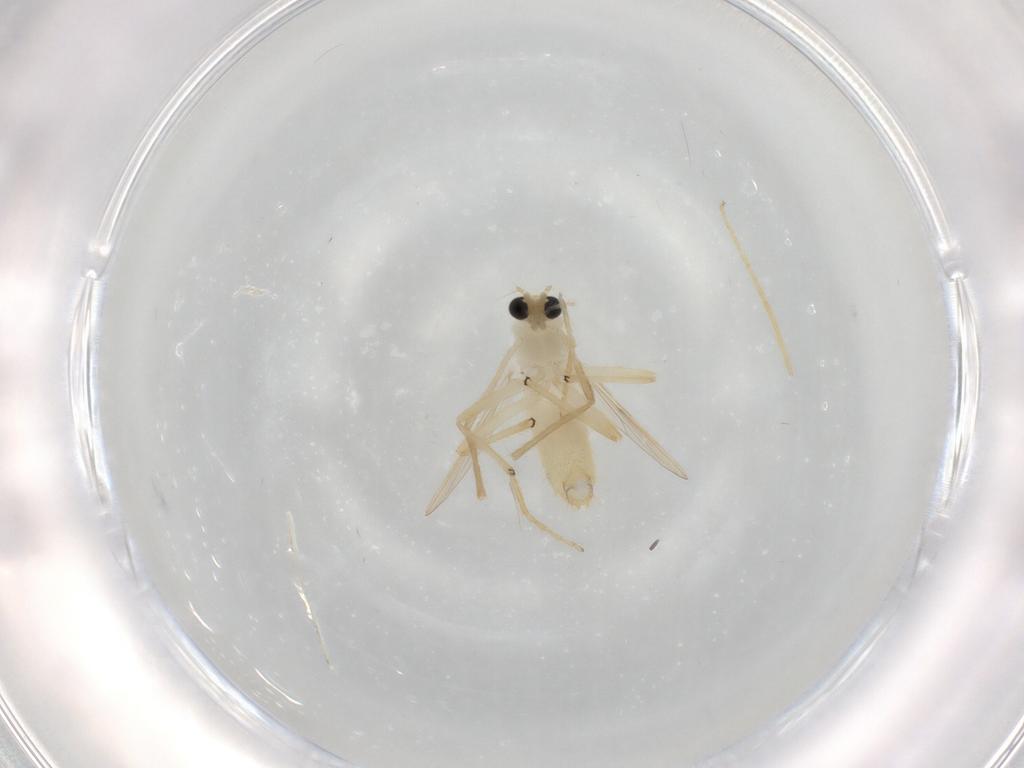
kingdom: Animalia
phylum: Arthropoda
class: Insecta
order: Diptera
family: Chironomidae
